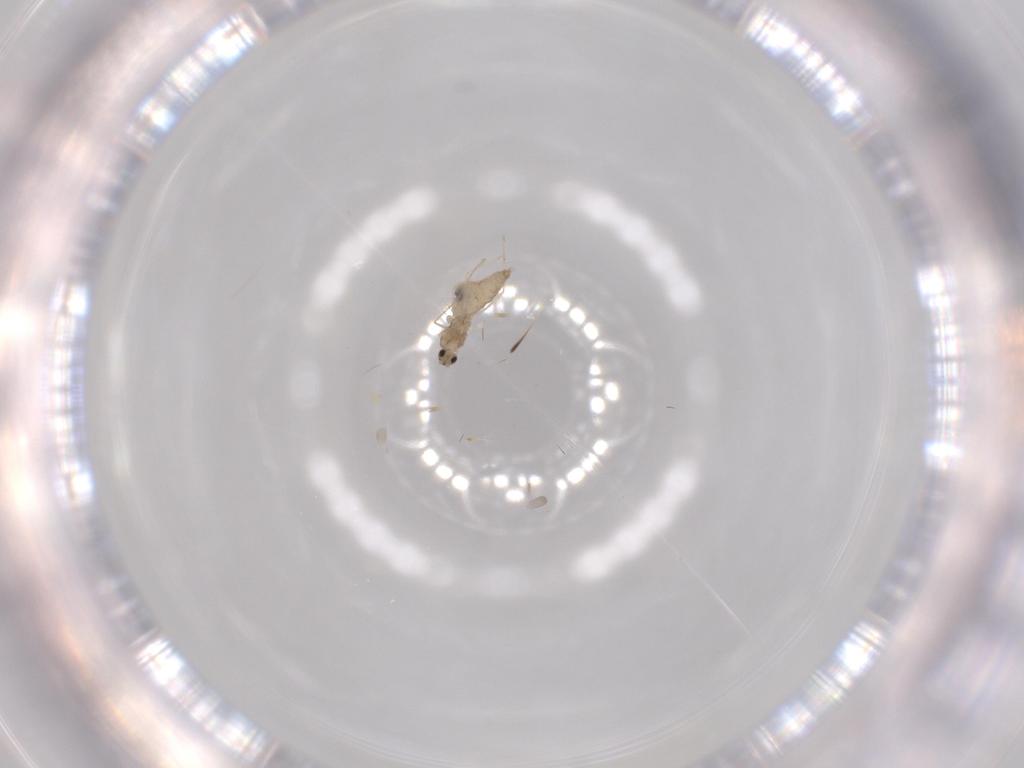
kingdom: Animalia
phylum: Arthropoda
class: Insecta
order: Diptera
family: Cecidomyiidae
